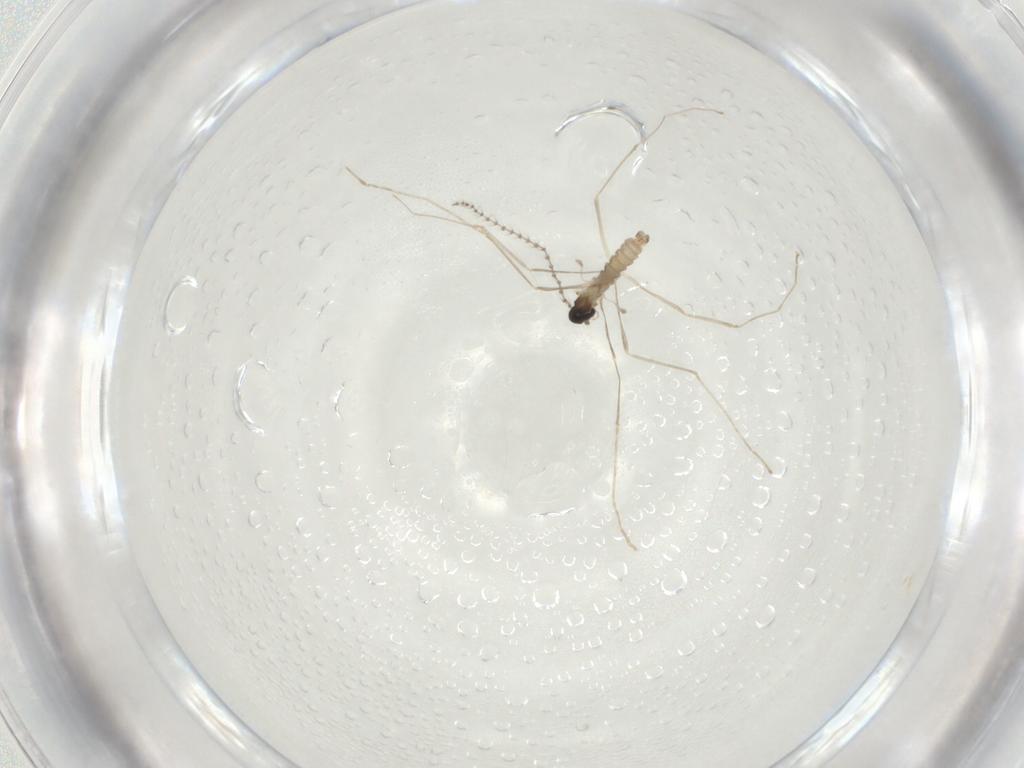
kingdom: Animalia
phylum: Arthropoda
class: Insecta
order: Diptera
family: Cecidomyiidae
